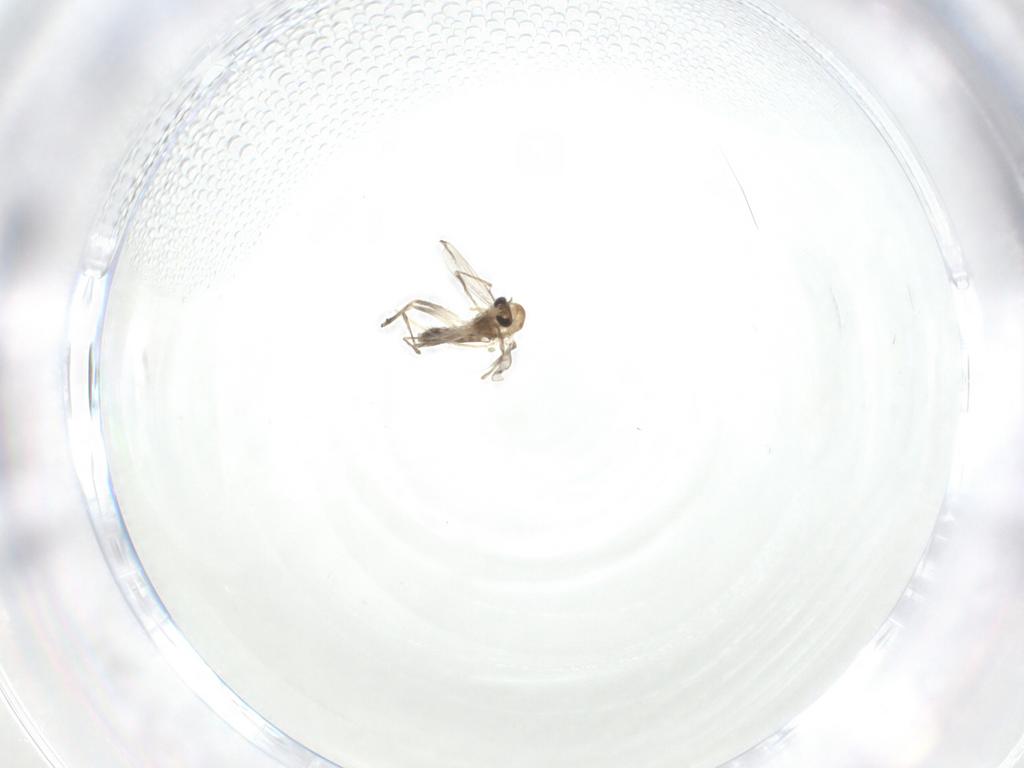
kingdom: Animalia
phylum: Arthropoda
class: Insecta
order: Diptera
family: Chironomidae
